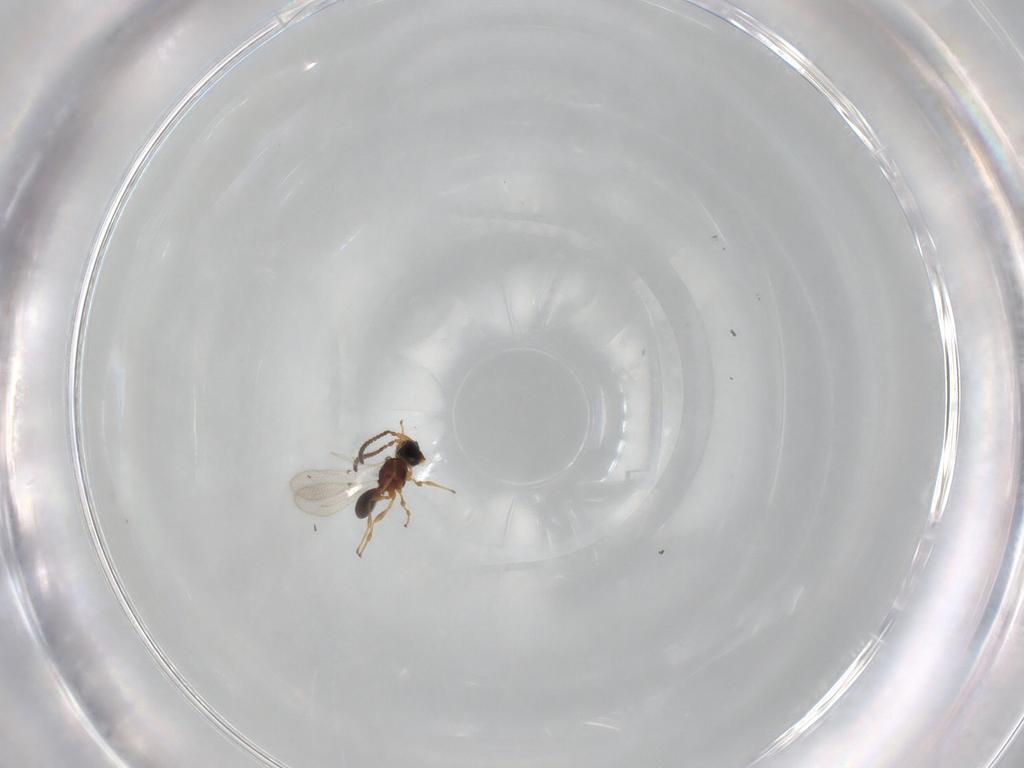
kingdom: Animalia
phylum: Arthropoda
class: Insecta
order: Hymenoptera
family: Diapriidae
